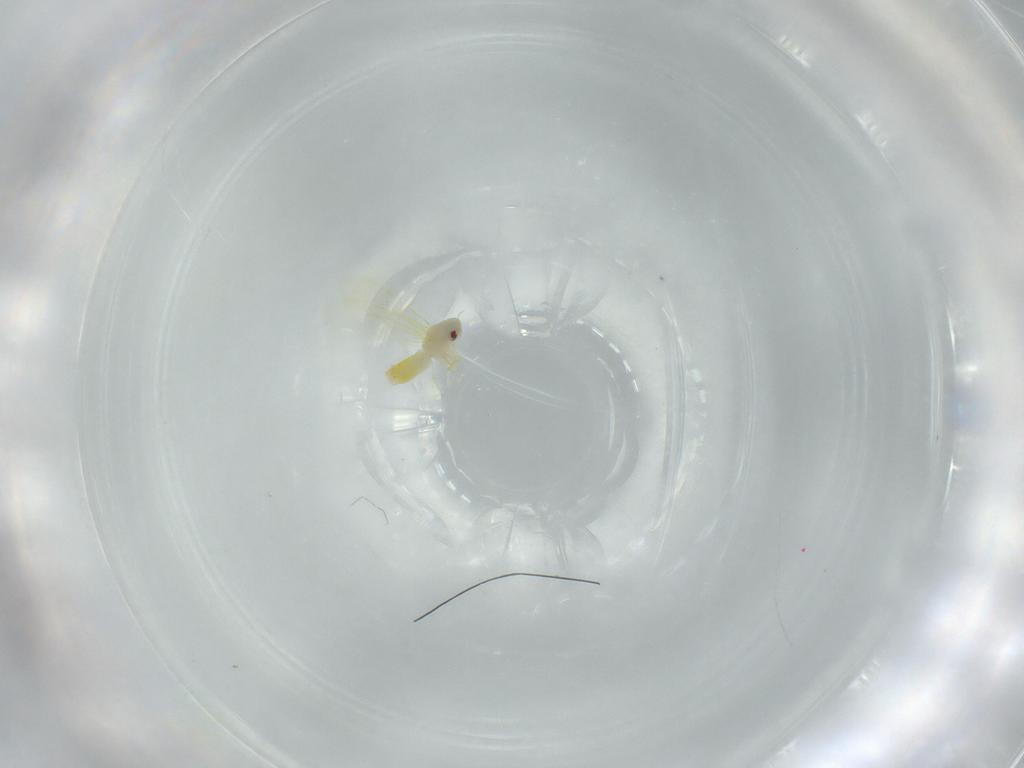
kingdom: Animalia
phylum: Arthropoda
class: Insecta
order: Hemiptera
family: Aleyrodidae
